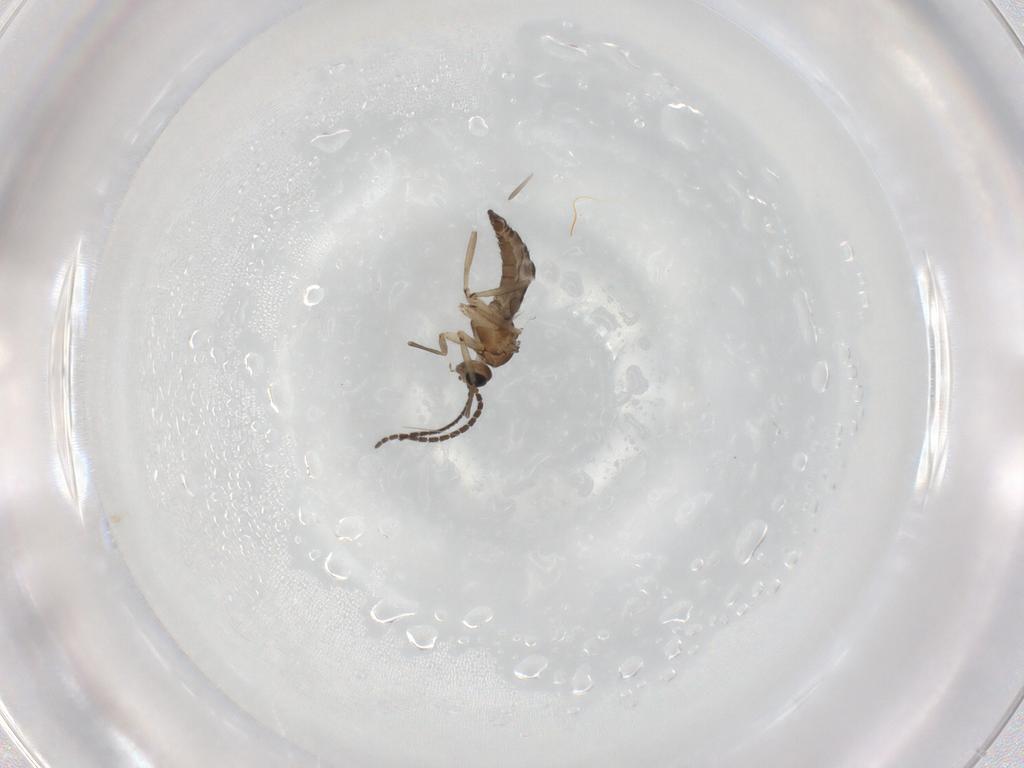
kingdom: Animalia
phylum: Arthropoda
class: Insecta
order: Diptera
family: Sciaridae
